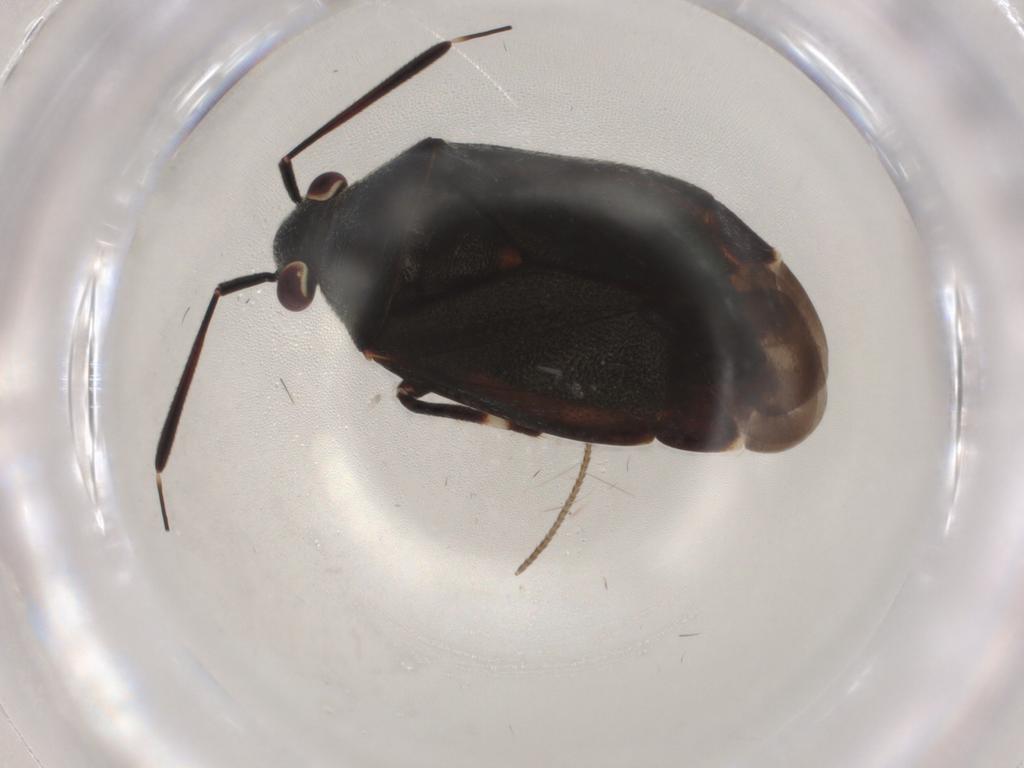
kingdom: Animalia
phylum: Arthropoda
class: Insecta
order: Hemiptera
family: Miridae
